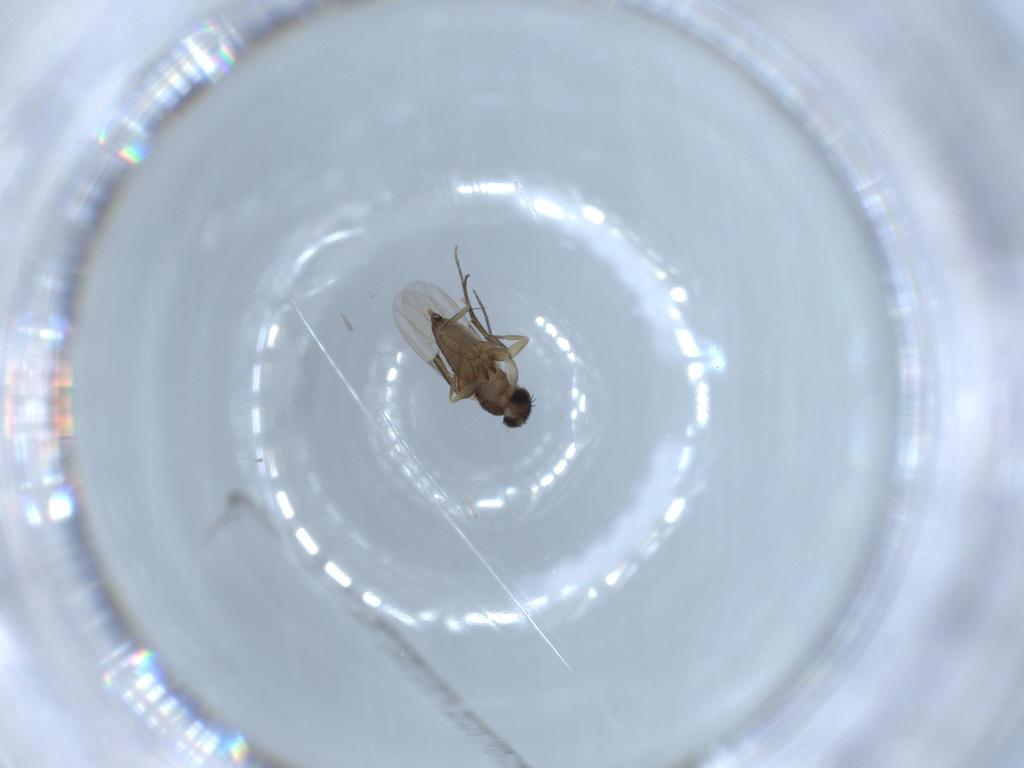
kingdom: Animalia
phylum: Arthropoda
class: Insecta
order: Diptera
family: Phoridae
